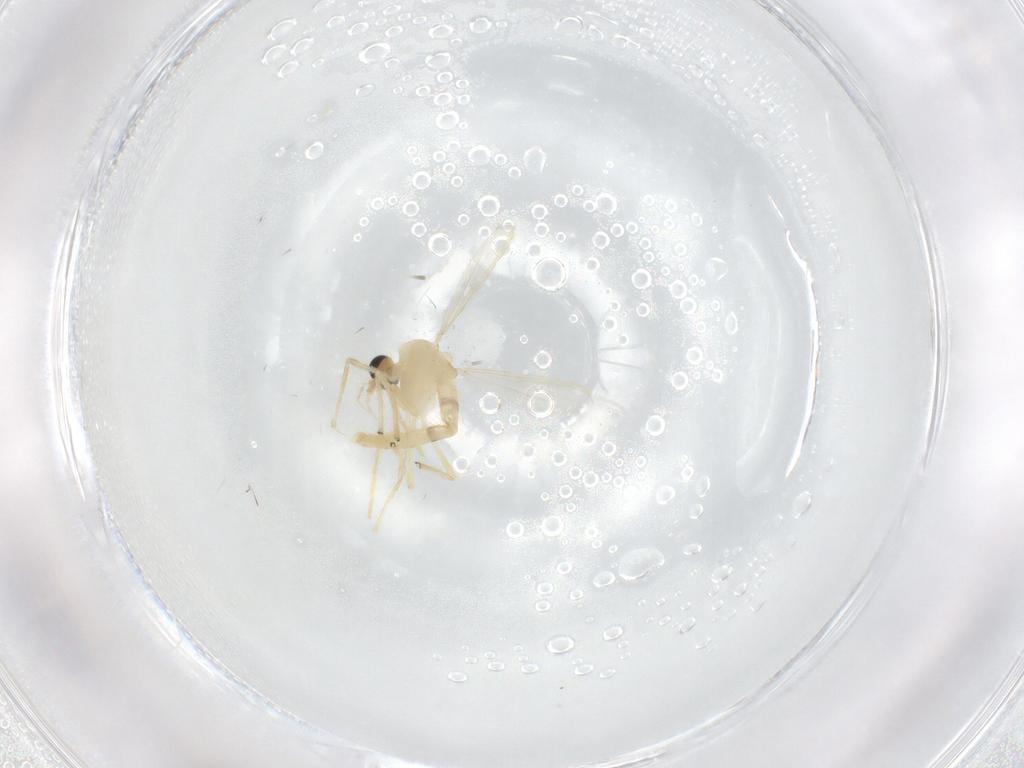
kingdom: Animalia
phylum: Arthropoda
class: Insecta
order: Diptera
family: Chironomidae
